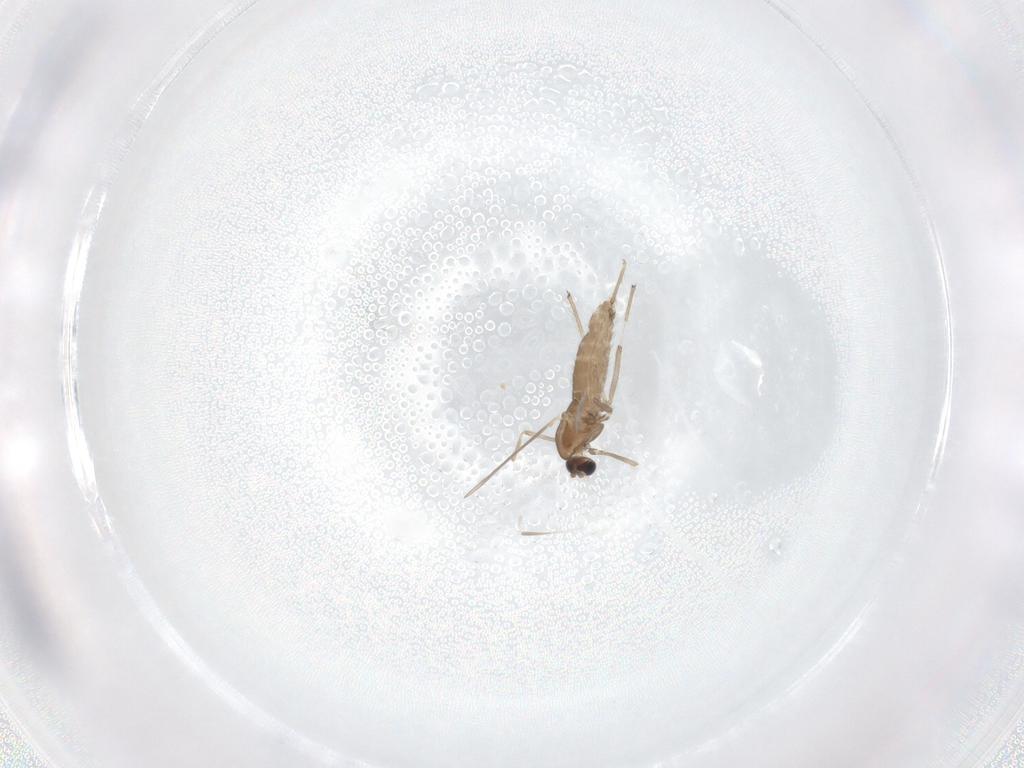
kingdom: Animalia
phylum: Arthropoda
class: Insecta
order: Diptera
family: Chironomidae
